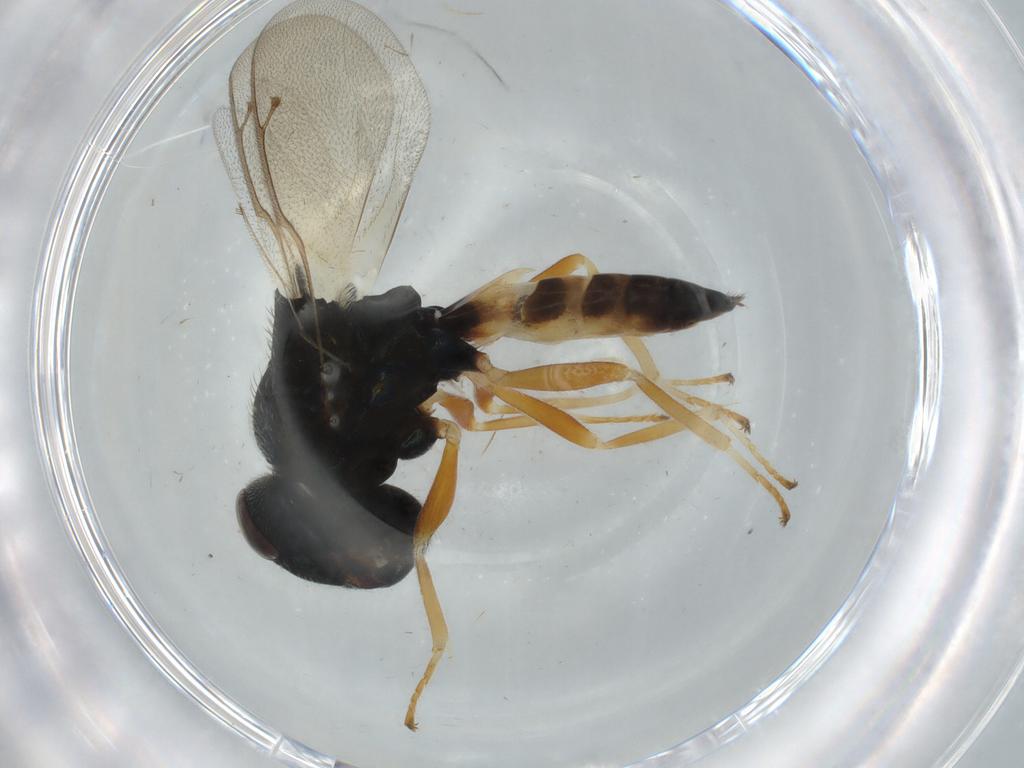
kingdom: Animalia
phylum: Arthropoda
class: Insecta
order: Hymenoptera
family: Pteromalidae
